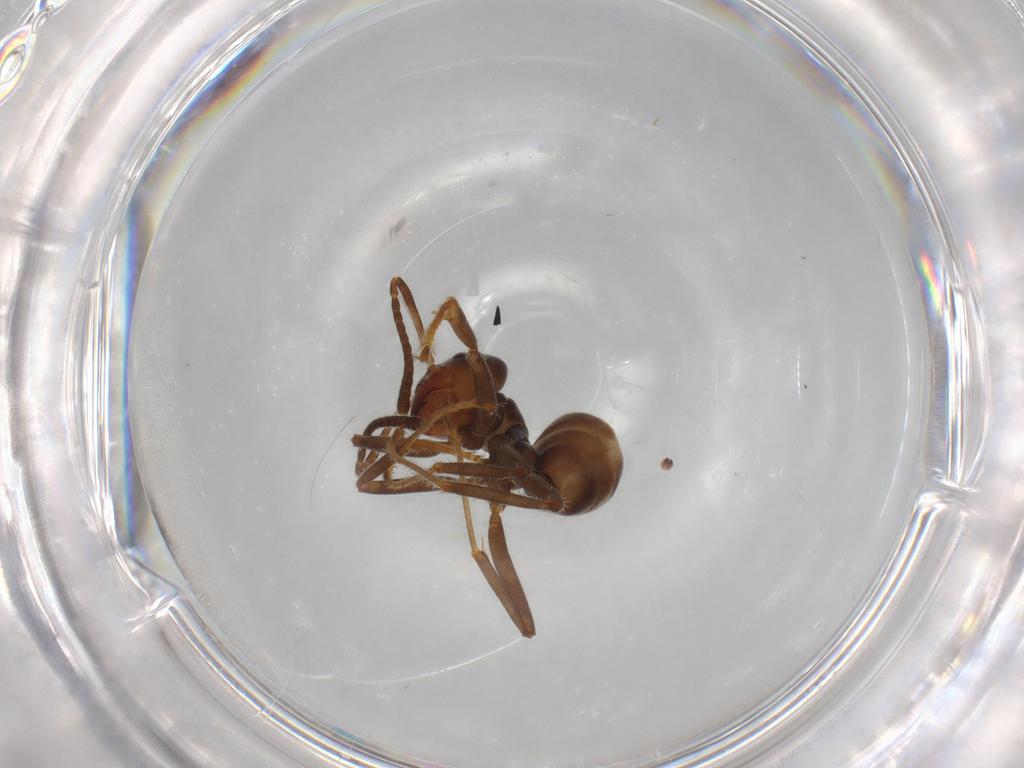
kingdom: Animalia
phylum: Arthropoda
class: Insecta
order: Hymenoptera
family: Formicidae
